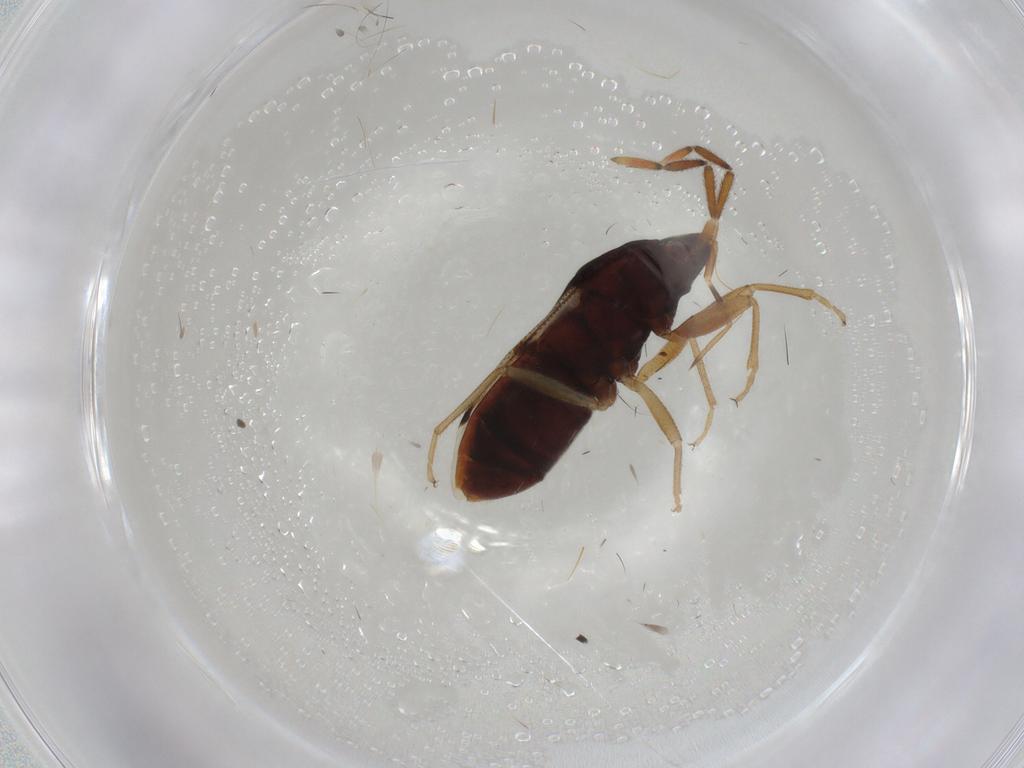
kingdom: Animalia
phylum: Arthropoda
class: Insecta
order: Hemiptera
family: Rhyparochromidae
